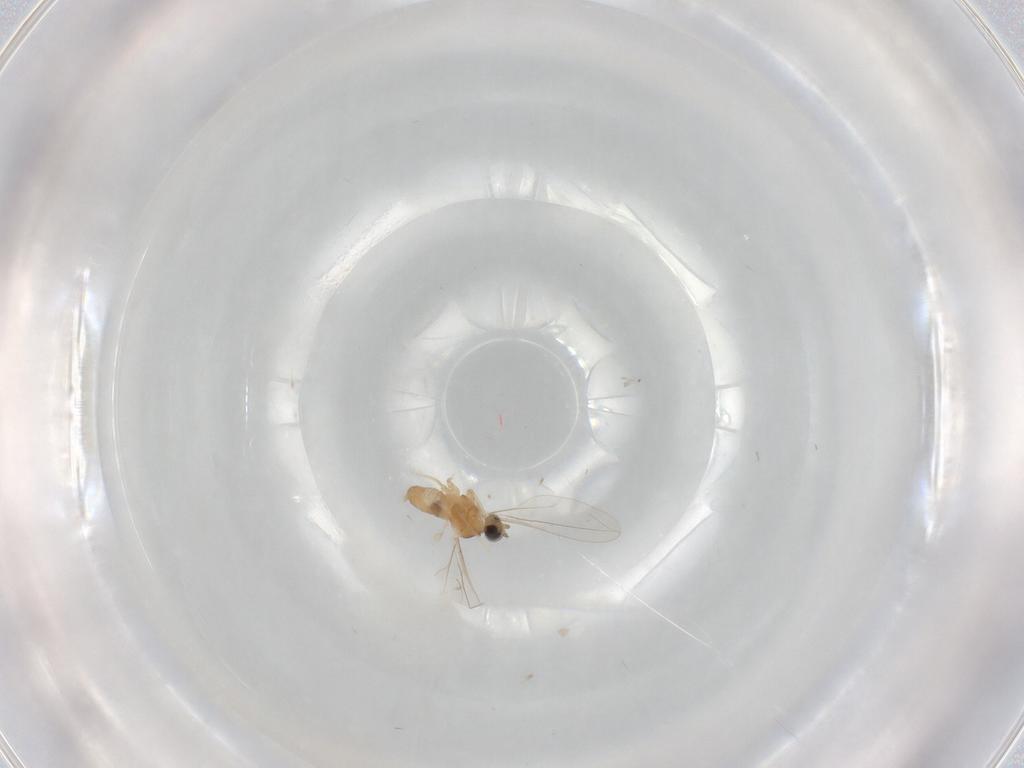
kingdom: Animalia
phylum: Arthropoda
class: Insecta
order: Diptera
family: Cecidomyiidae
